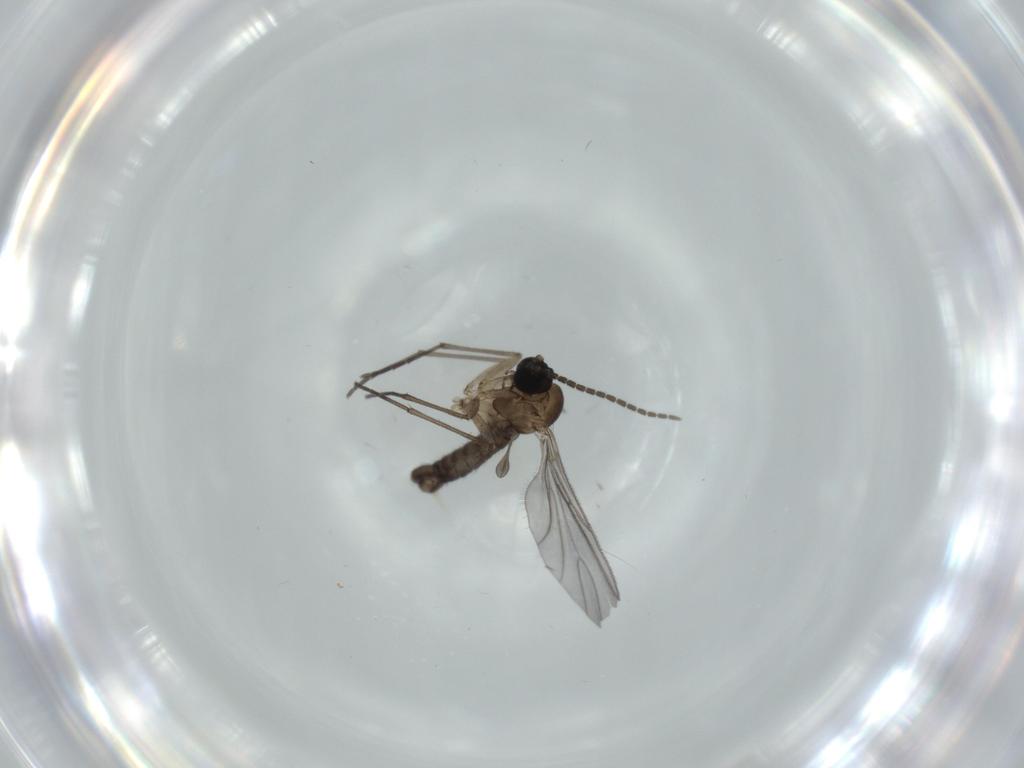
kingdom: Animalia
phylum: Arthropoda
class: Insecta
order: Diptera
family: Sciaridae
